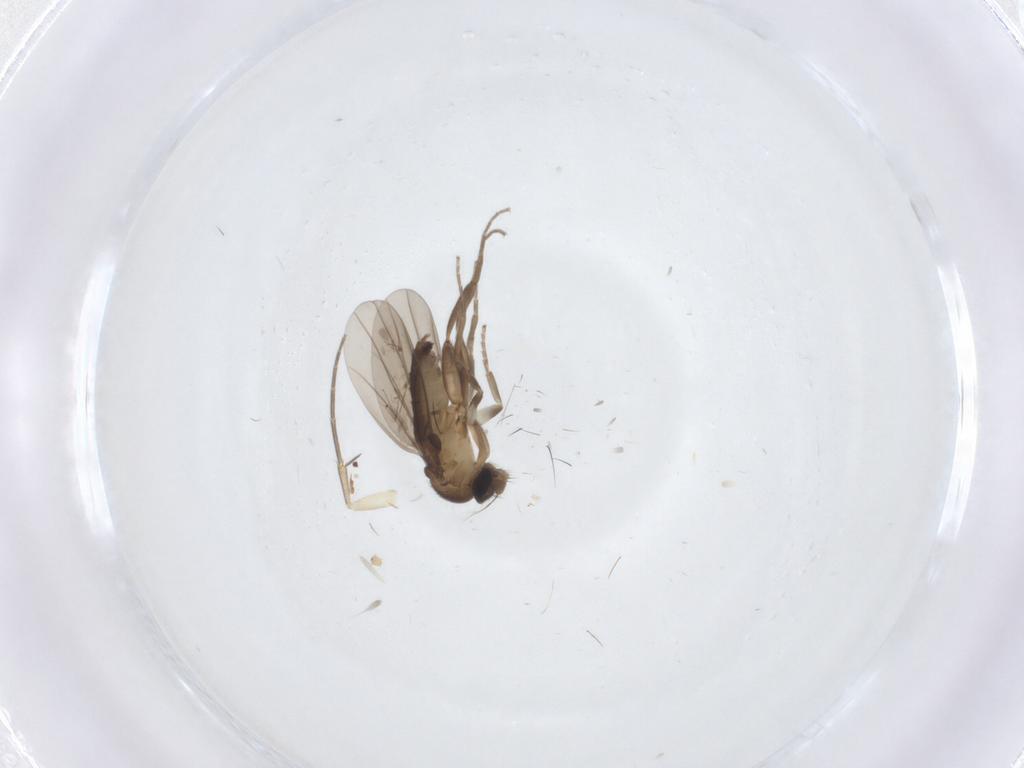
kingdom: Animalia
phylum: Arthropoda
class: Insecta
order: Diptera
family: Mycetophilidae
